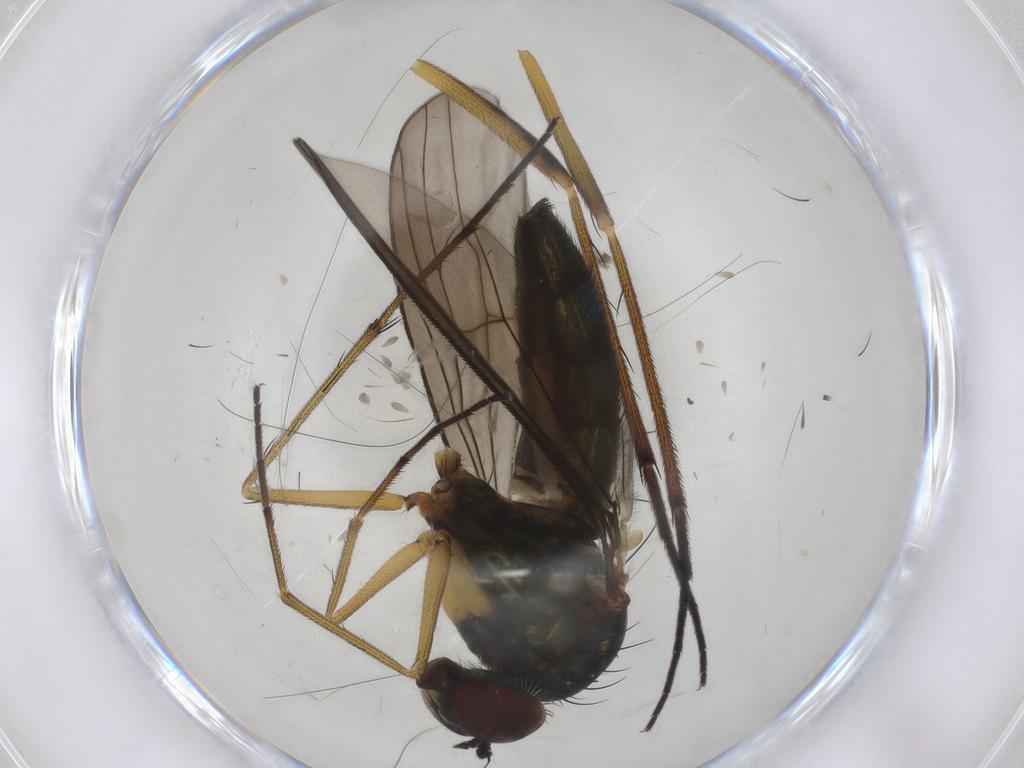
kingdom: Animalia
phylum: Arthropoda
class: Insecta
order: Diptera
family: Dolichopodidae
